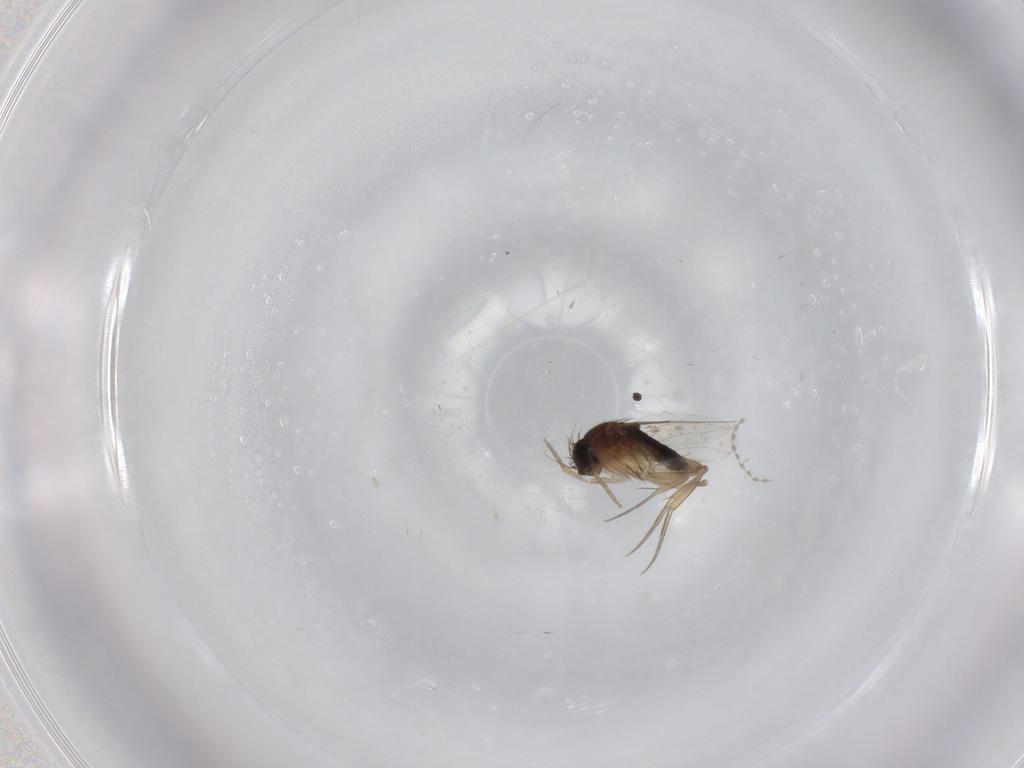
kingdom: Animalia
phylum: Arthropoda
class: Insecta
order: Diptera
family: Phoridae
